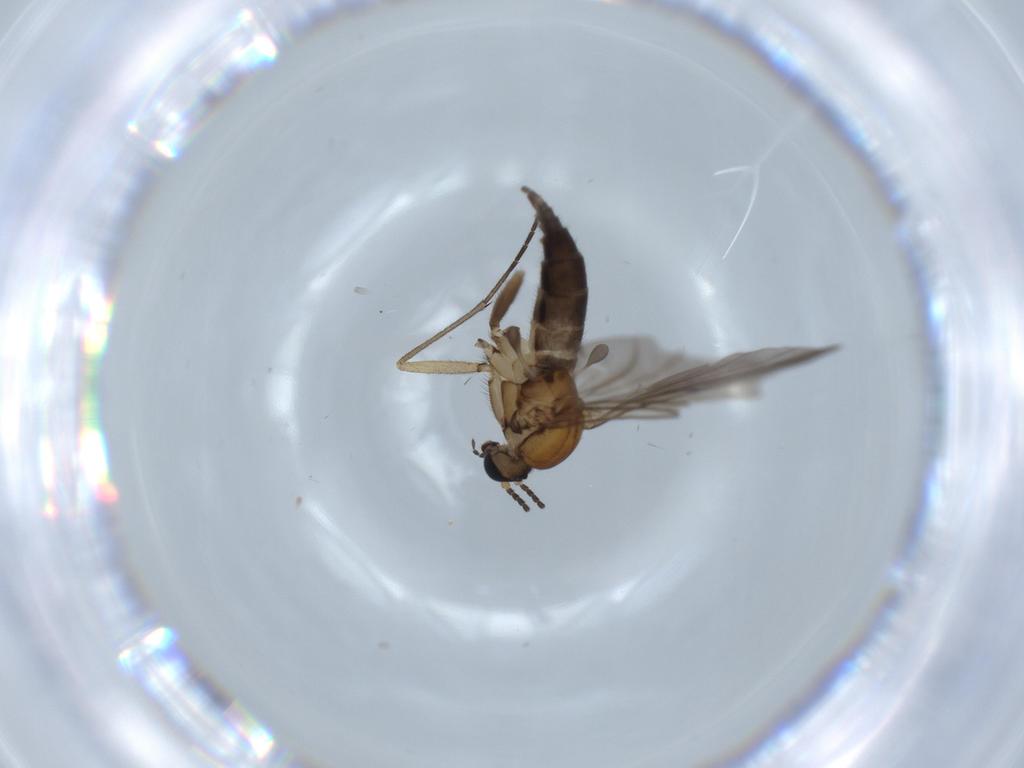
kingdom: Animalia
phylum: Arthropoda
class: Insecta
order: Diptera
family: Sciaridae
